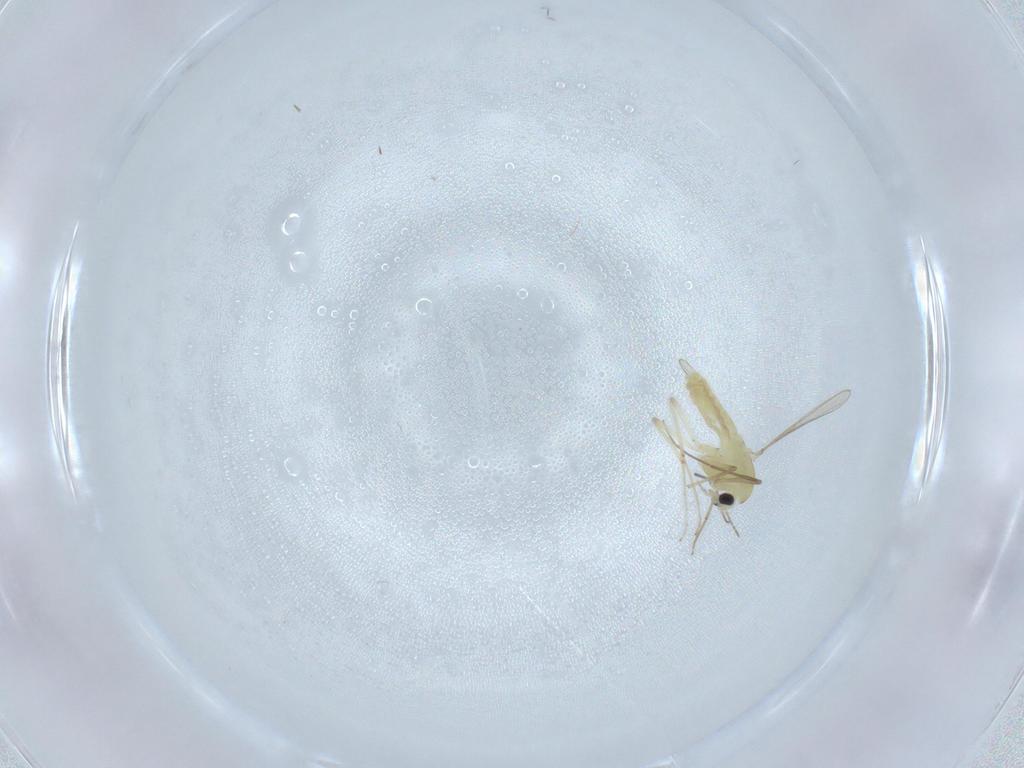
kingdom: Animalia
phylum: Arthropoda
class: Insecta
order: Diptera
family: Chironomidae
